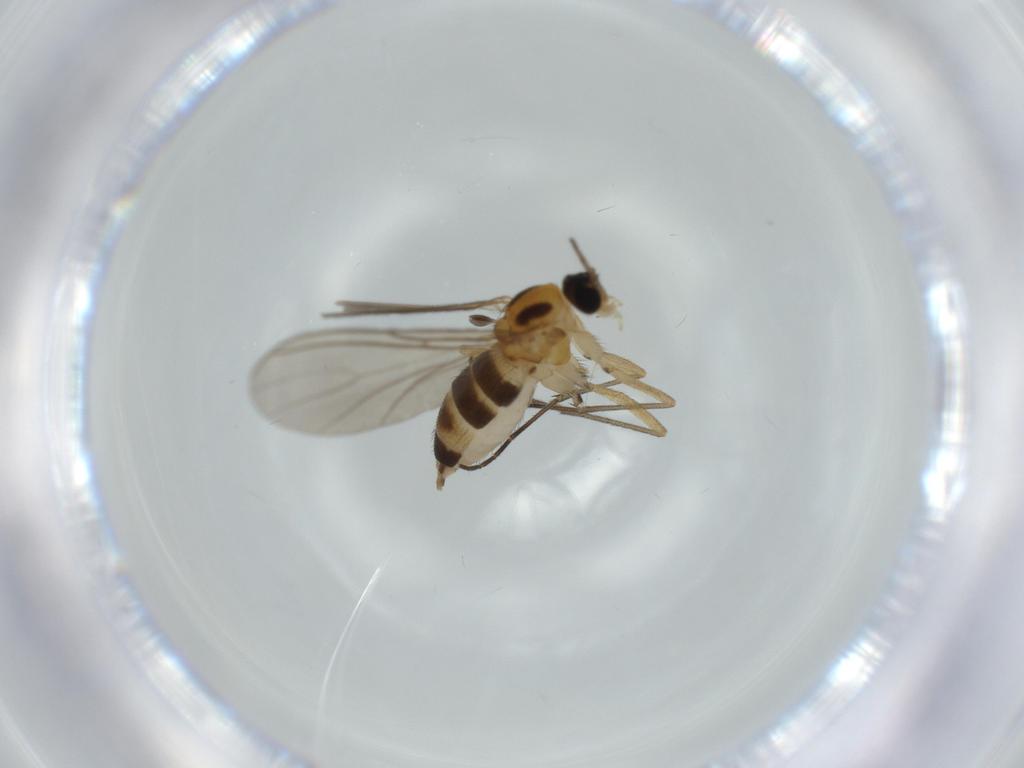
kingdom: Animalia
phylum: Arthropoda
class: Insecta
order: Diptera
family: Sciaridae
